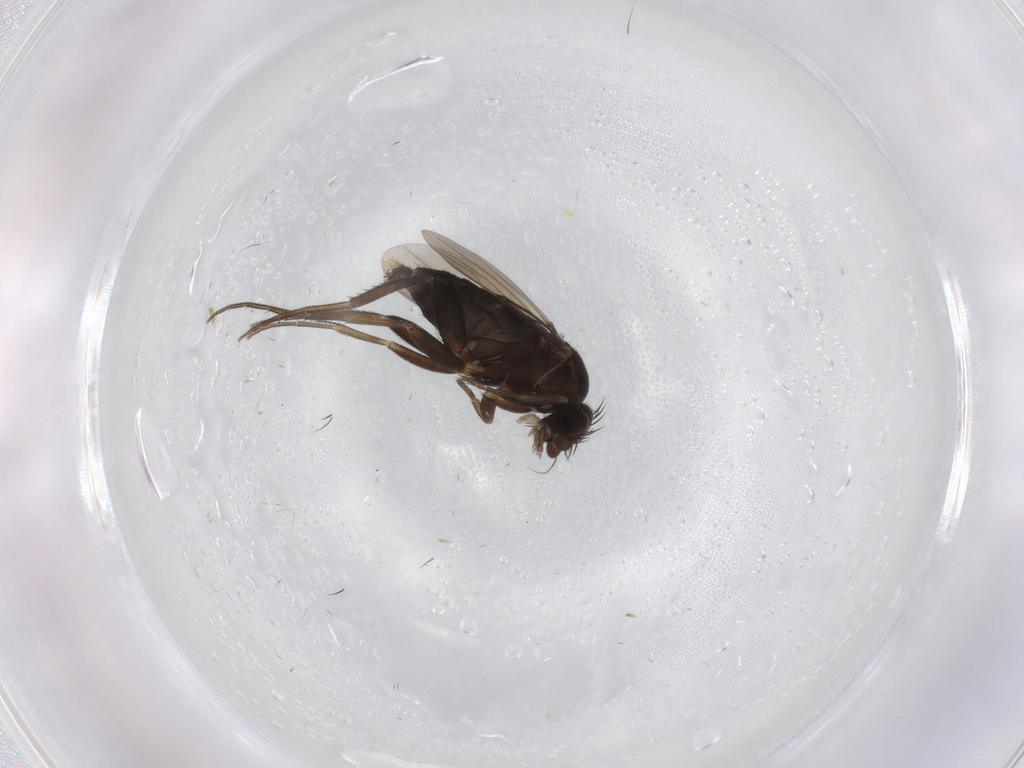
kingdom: Animalia
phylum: Arthropoda
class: Insecta
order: Diptera
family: Phoridae
